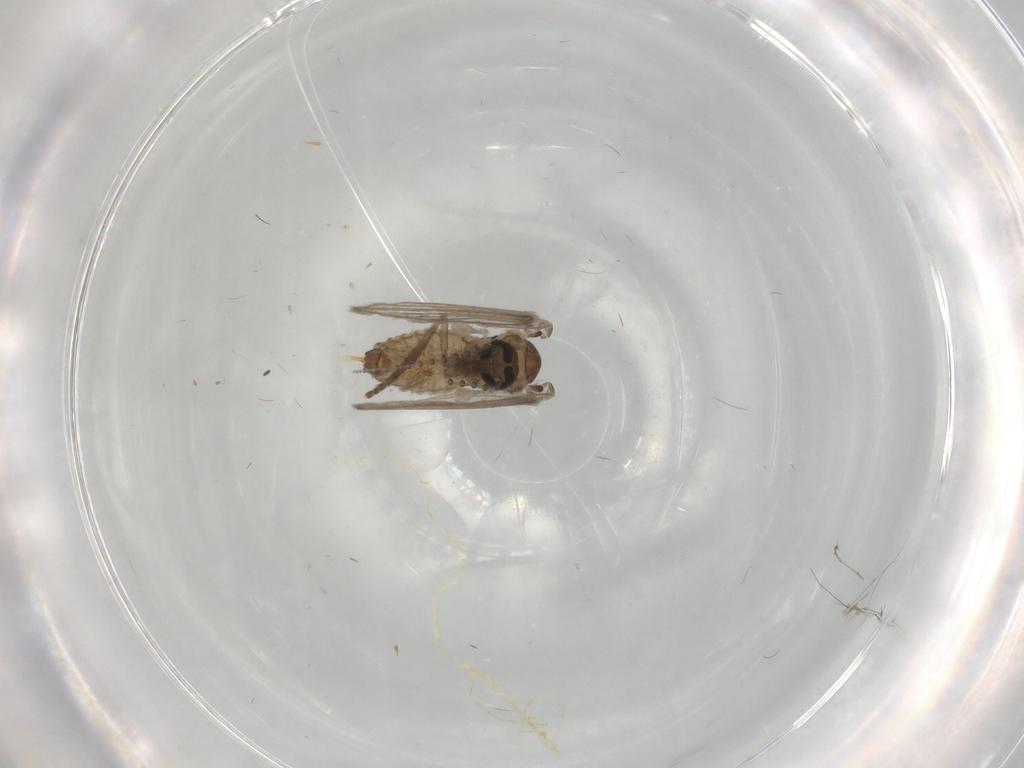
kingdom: Animalia
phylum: Arthropoda
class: Insecta
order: Diptera
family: Psychodidae
